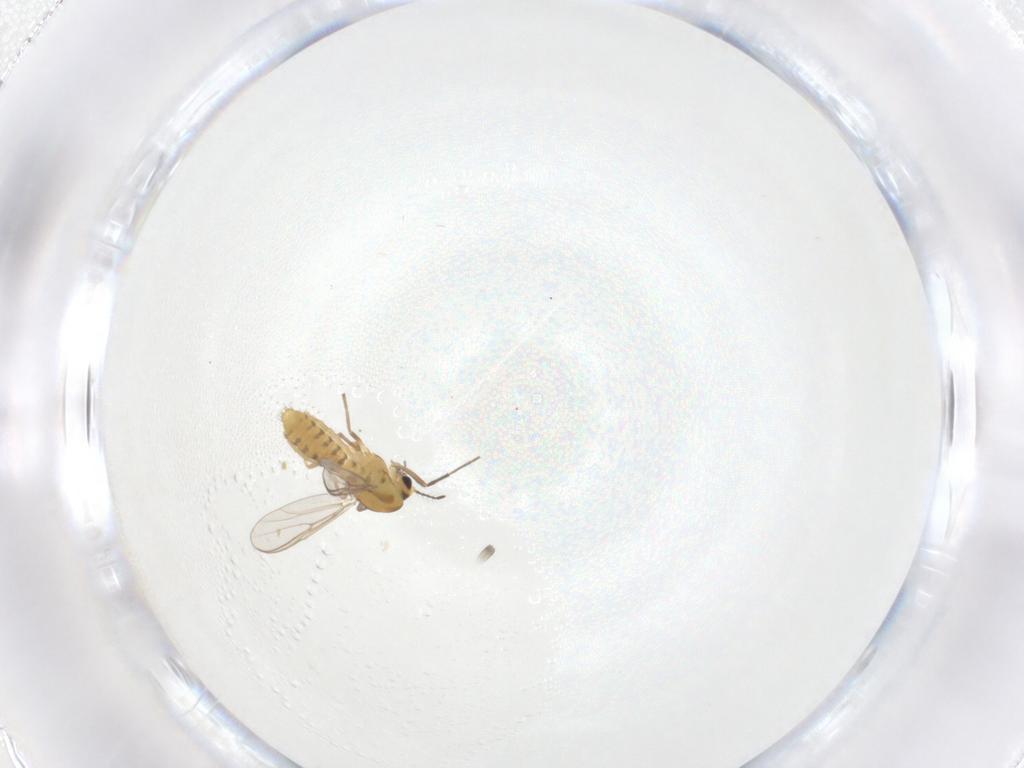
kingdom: Animalia
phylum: Arthropoda
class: Insecta
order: Diptera
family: Chironomidae
